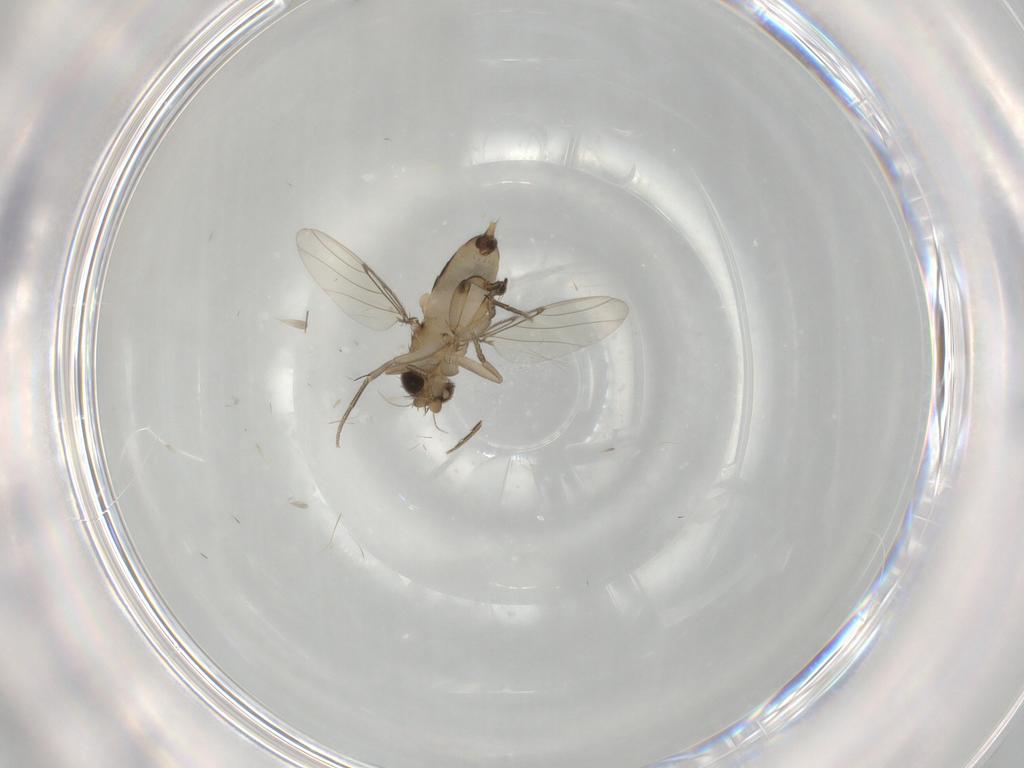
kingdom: Animalia
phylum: Arthropoda
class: Insecta
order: Diptera
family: Phoridae
